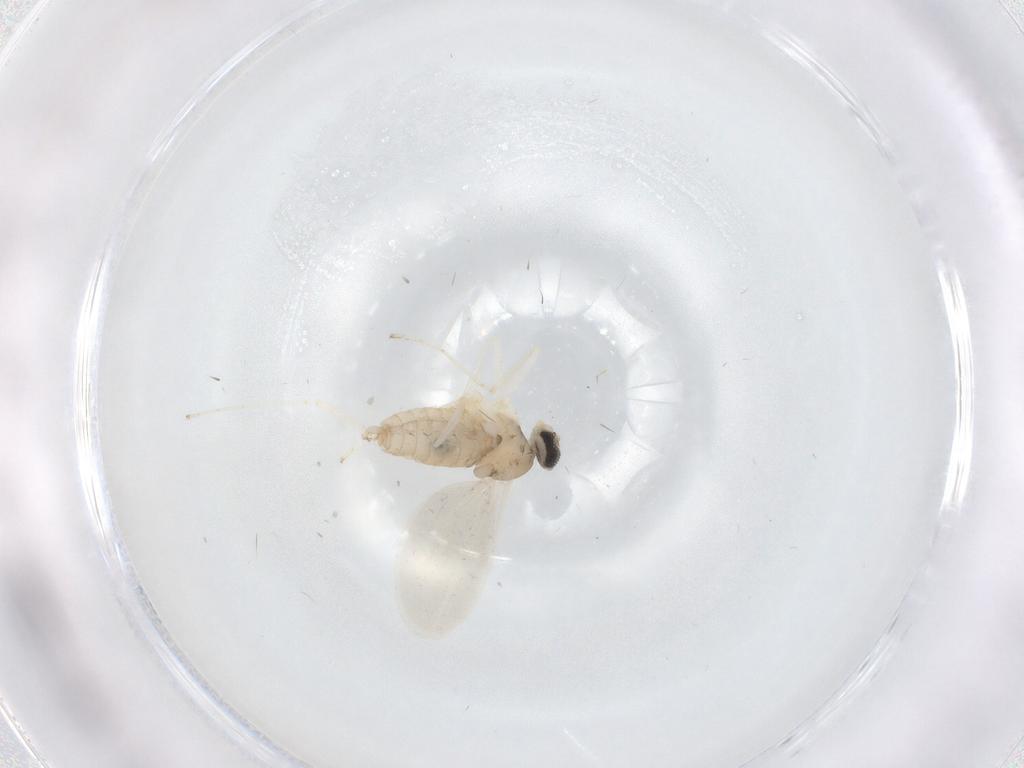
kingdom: Animalia
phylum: Arthropoda
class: Insecta
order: Diptera
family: Cecidomyiidae
